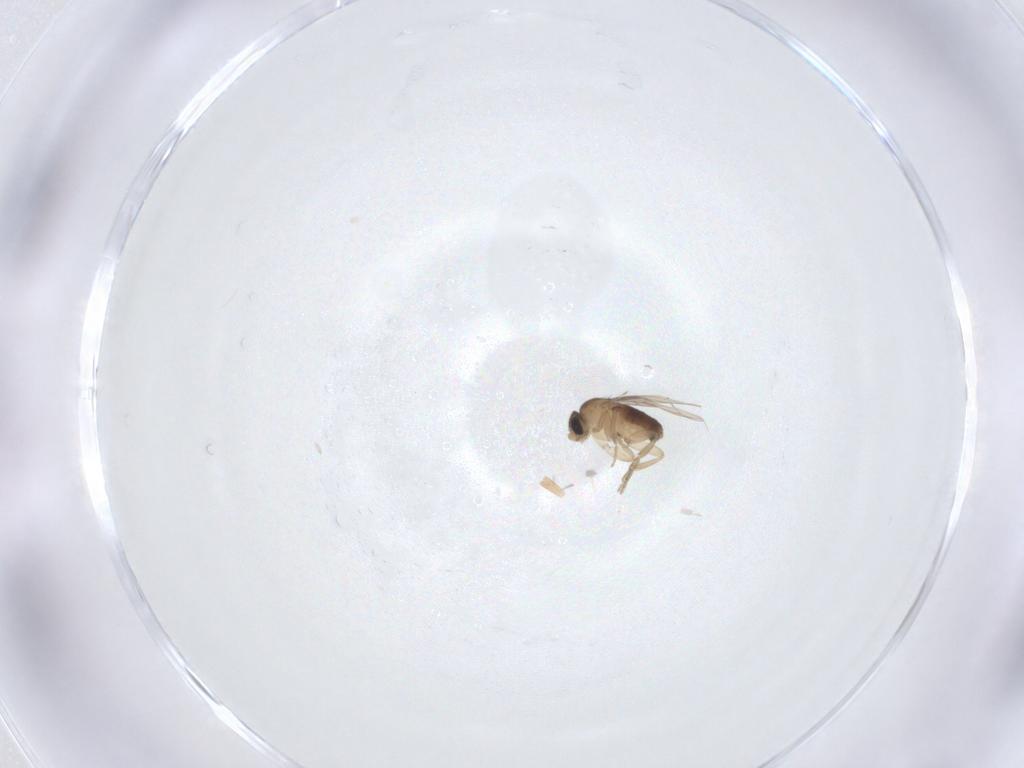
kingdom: Animalia
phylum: Arthropoda
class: Insecta
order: Diptera
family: Phoridae
